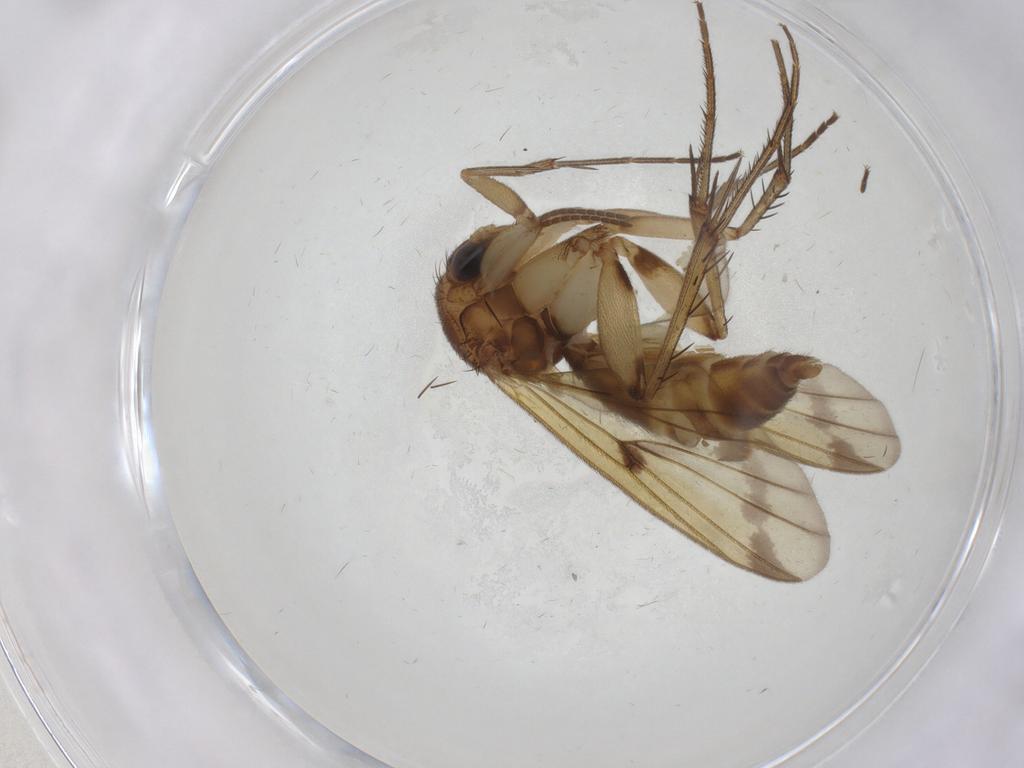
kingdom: Animalia
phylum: Arthropoda
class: Insecta
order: Diptera
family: Mycetophilidae
